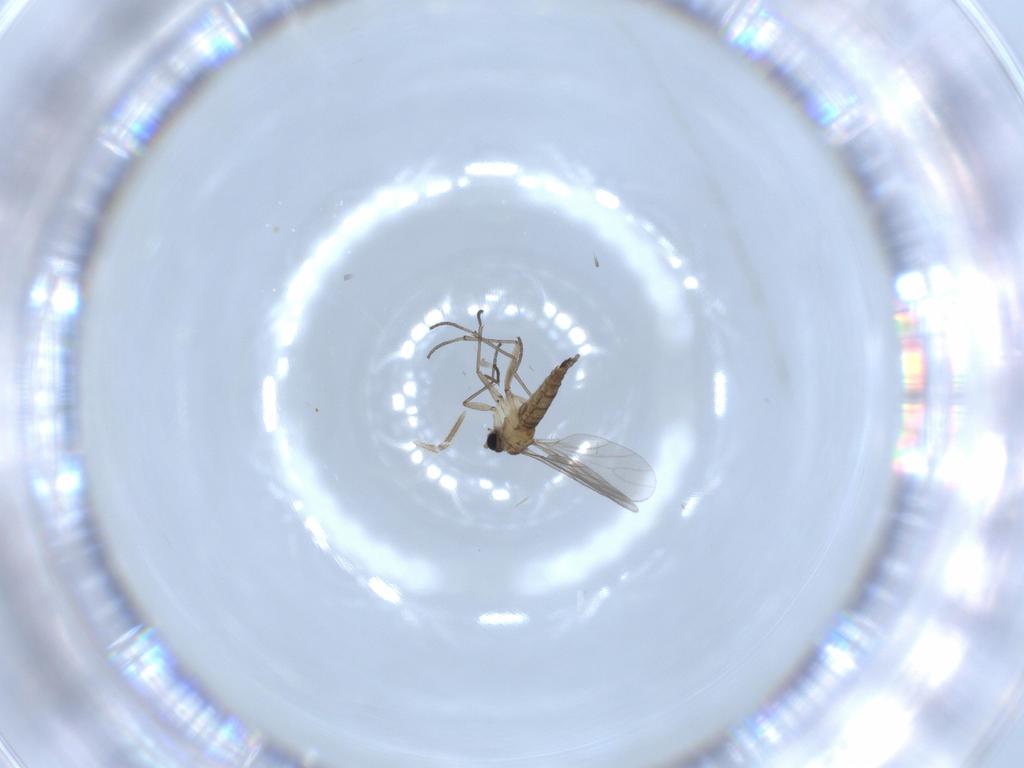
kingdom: Animalia
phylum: Arthropoda
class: Insecta
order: Diptera
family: Sciaridae
